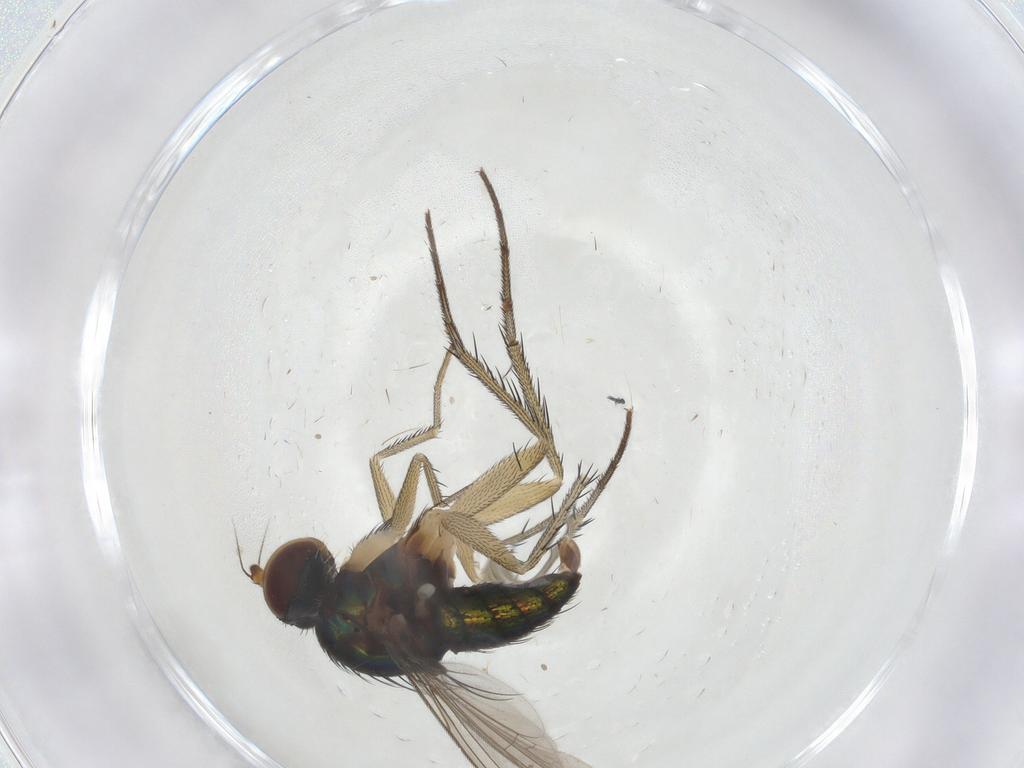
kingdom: Animalia
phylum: Arthropoda
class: Insecta
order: Diptera
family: Dolichopodidae
